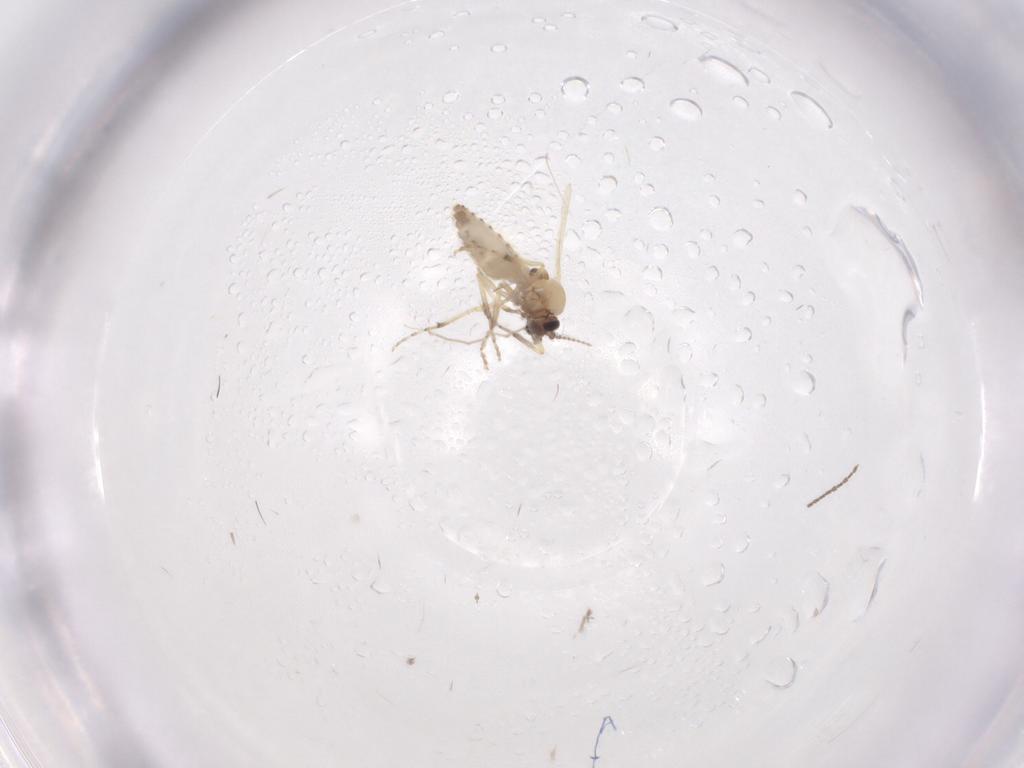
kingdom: Animalia
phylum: Arthropoda
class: Insecta
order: Diptera
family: Ceratopogonidae
